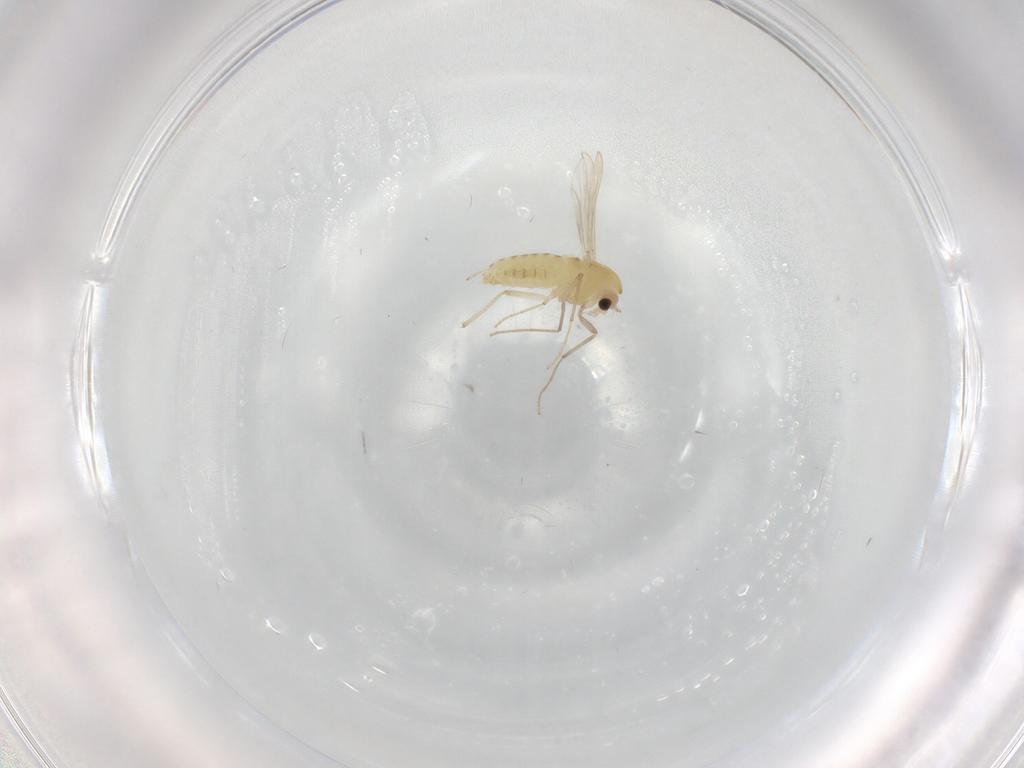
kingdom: Animalia
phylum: Arthropoda
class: Insecta
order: Diptera
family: Chironomidae
